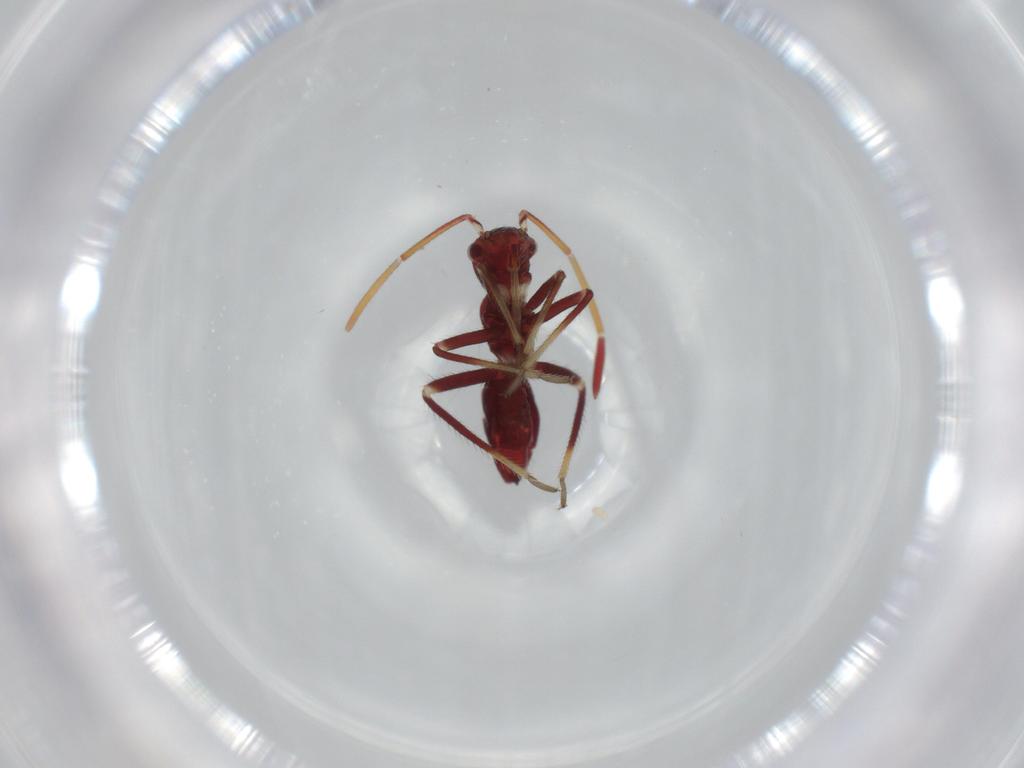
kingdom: Animalia
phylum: Arthropoda
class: Insecta
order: Hemiptera
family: Miridae
